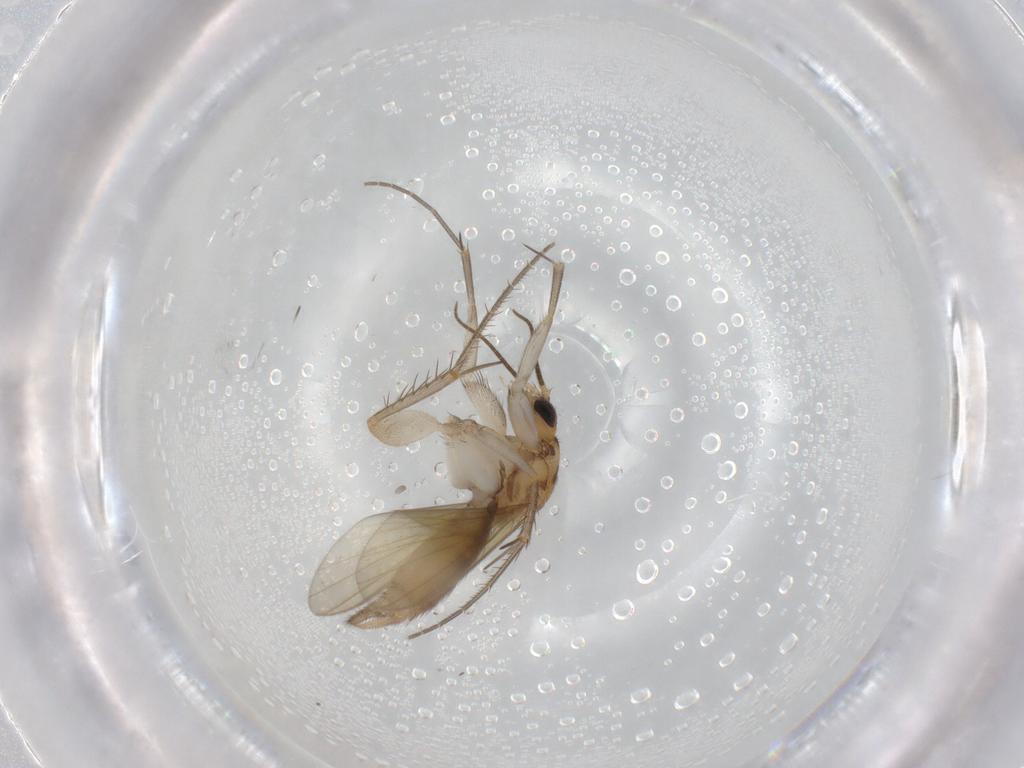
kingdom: Animalia
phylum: Arthropoda
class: Insecta
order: Diptera
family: Mycetophilidae
